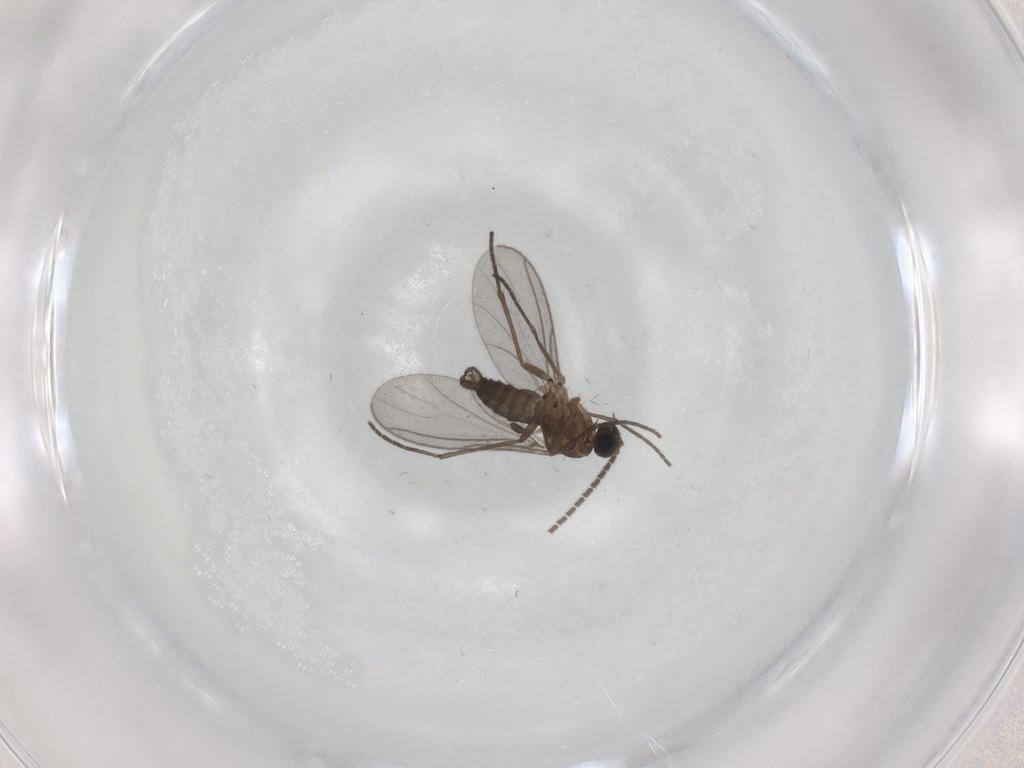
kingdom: Animalia
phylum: Arthropoda
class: Insecta
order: Diptera
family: Sciaridae
